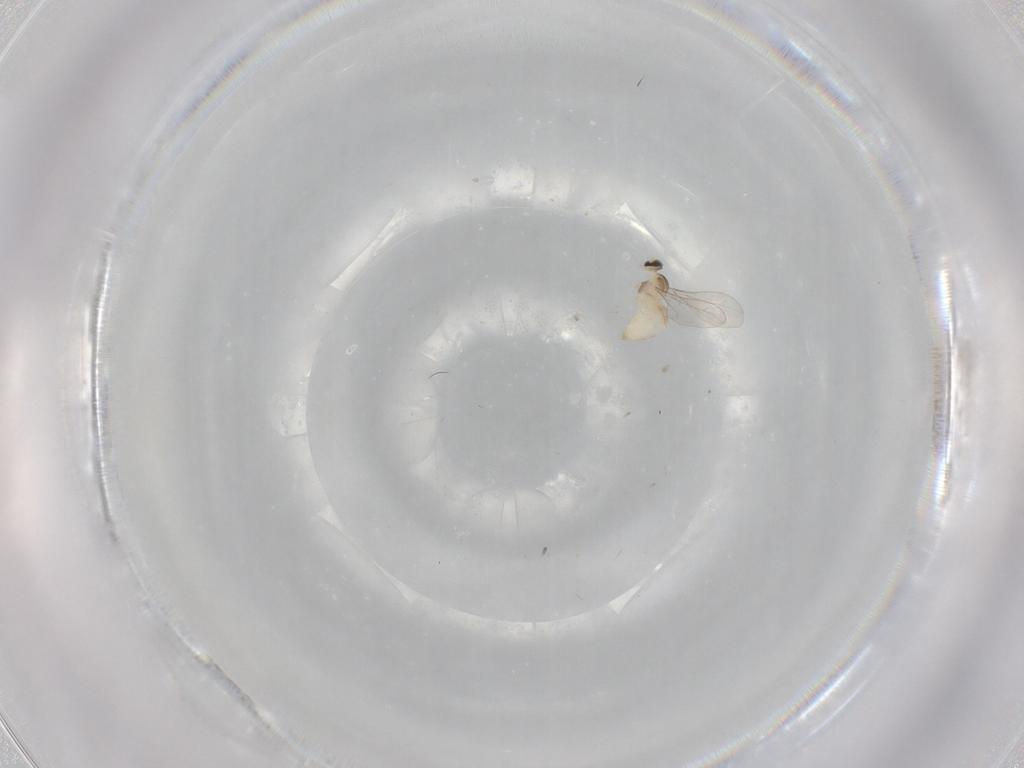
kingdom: Animalia
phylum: Arthropoda
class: Insecta
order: Diptera
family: Cecidomyiidae
